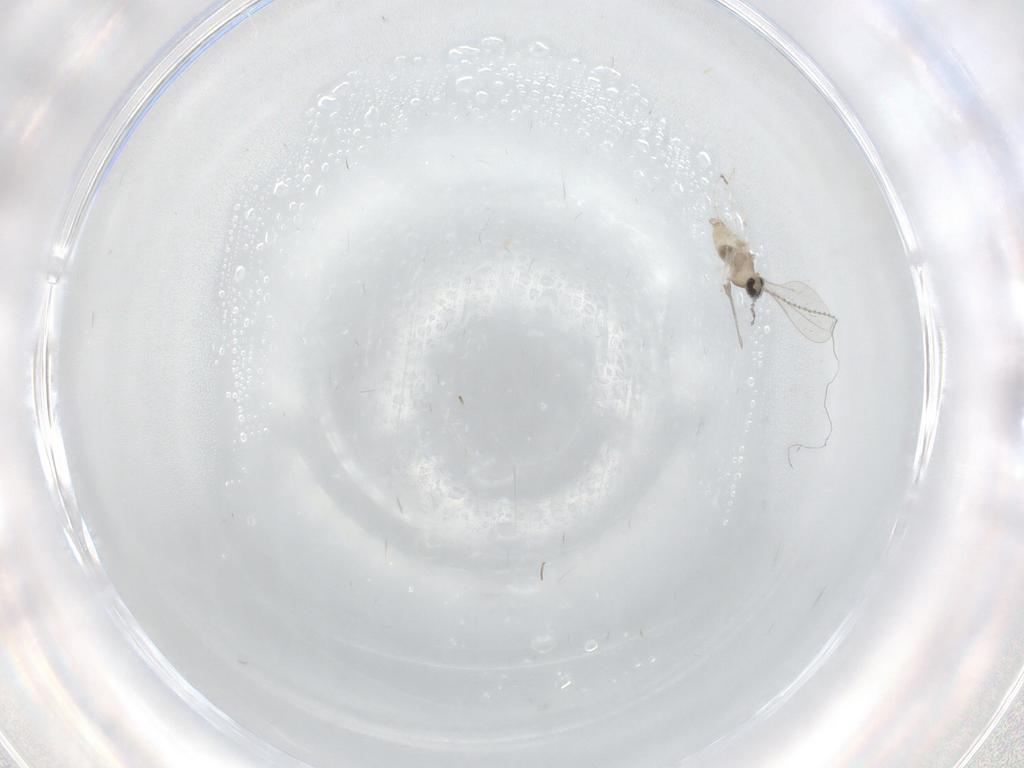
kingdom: Animalia
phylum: Arthropoda
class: Insecta
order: Diptera
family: Cecidomyiidae
